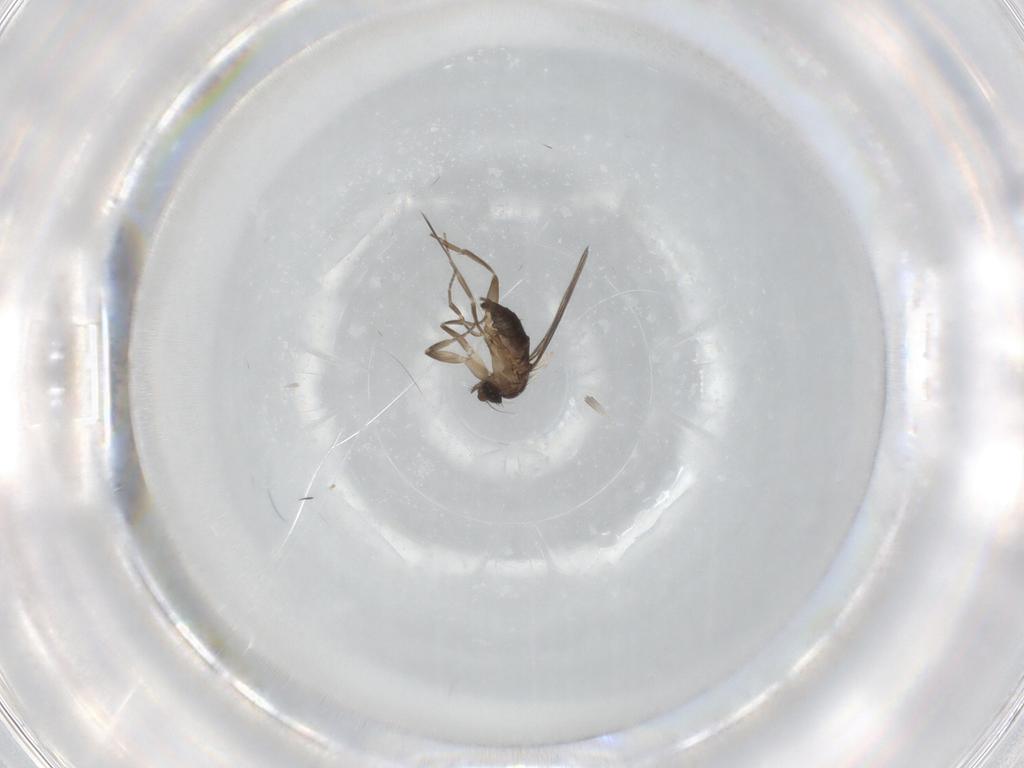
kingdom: Animalia
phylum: Arthropoda
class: Insecta
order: Diptera
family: Phoridae
